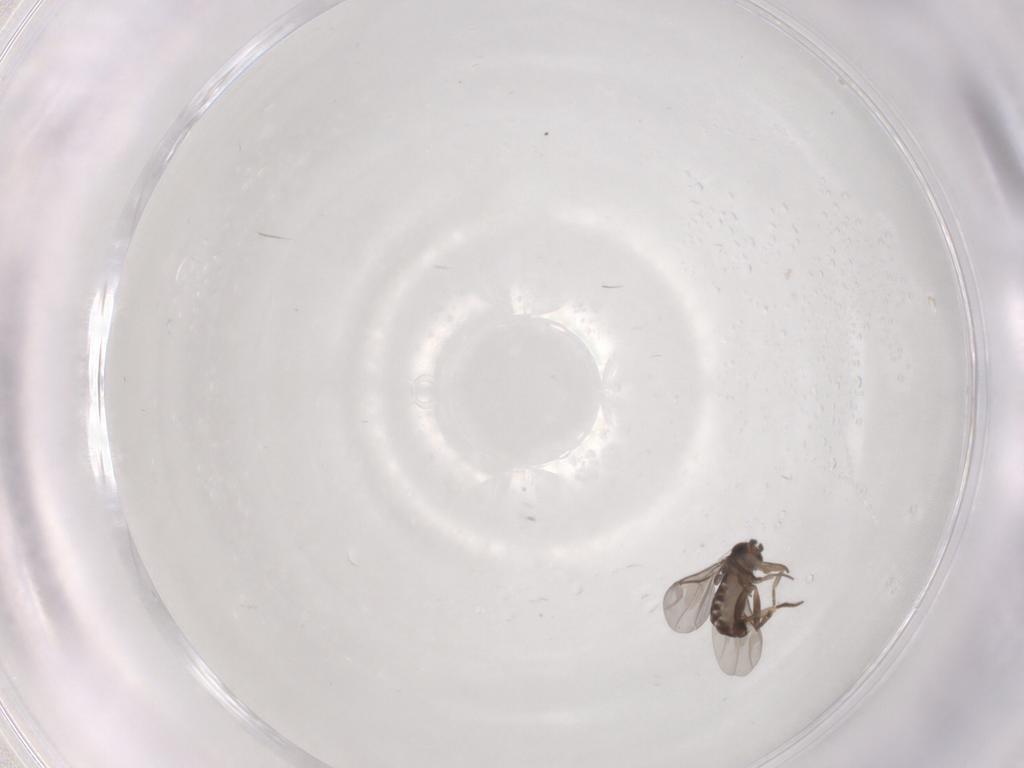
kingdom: Animalia
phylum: Arthropoda
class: Insecta
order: Diptera
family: Phoridae
